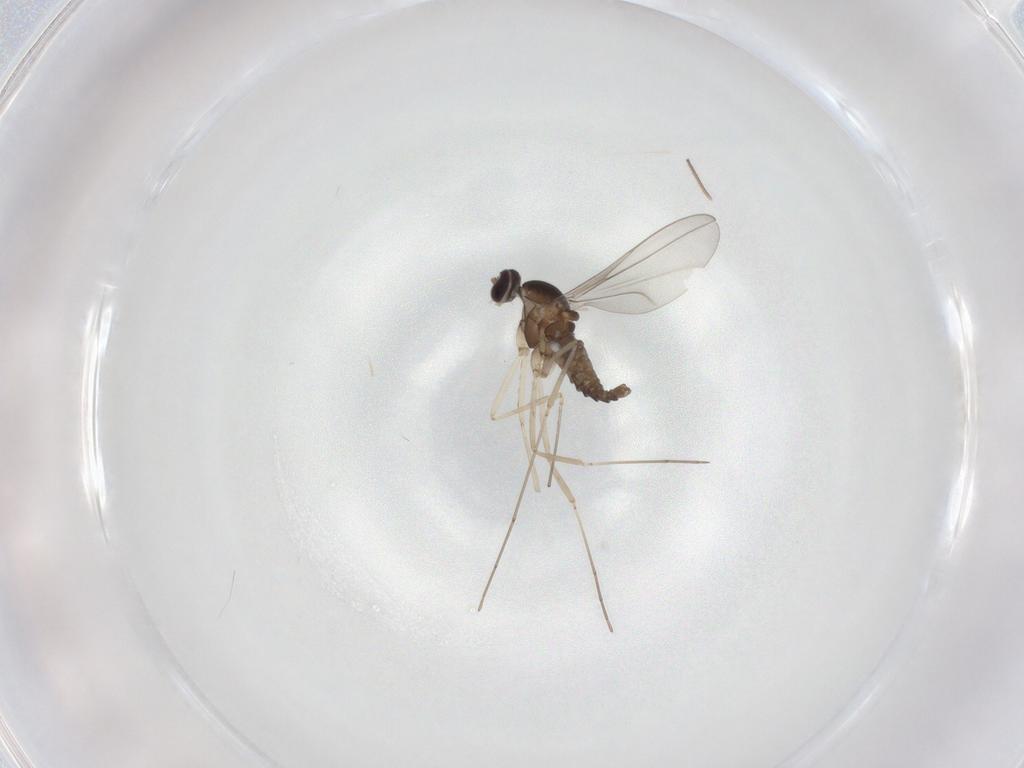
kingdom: Animalia
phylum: Arthropoda
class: Insecta
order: Diptera
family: Cecidomyiidae
